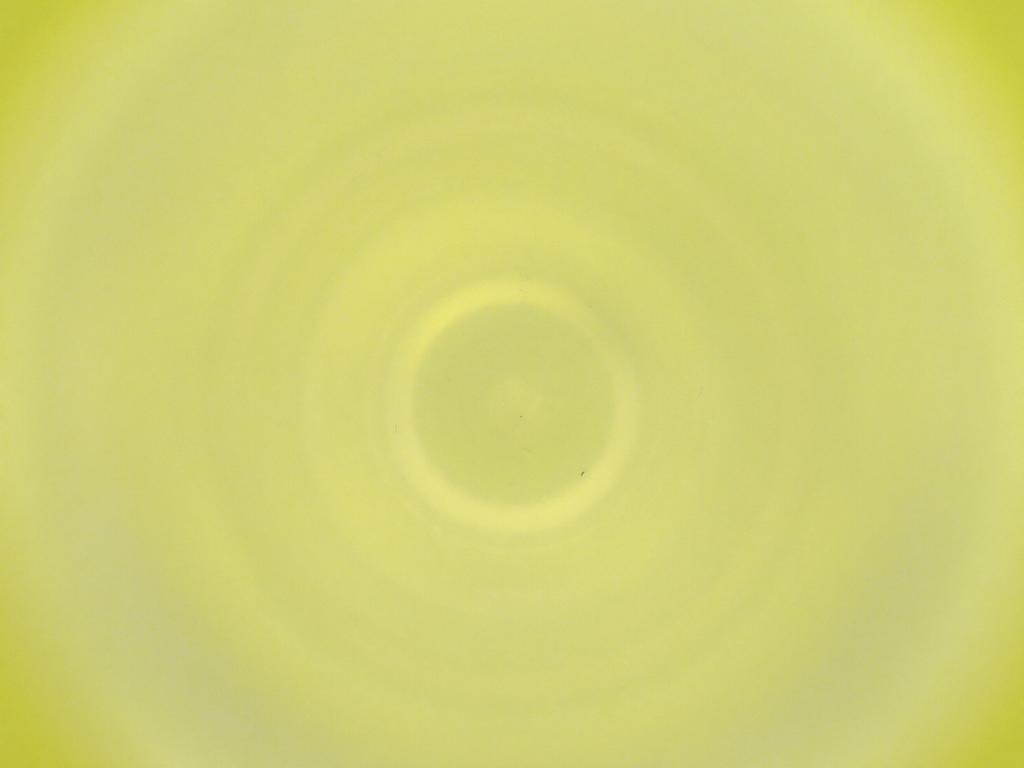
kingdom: Animalia
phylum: Arthropoda
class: Insecta
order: Diptera
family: Cecidomyiidae
